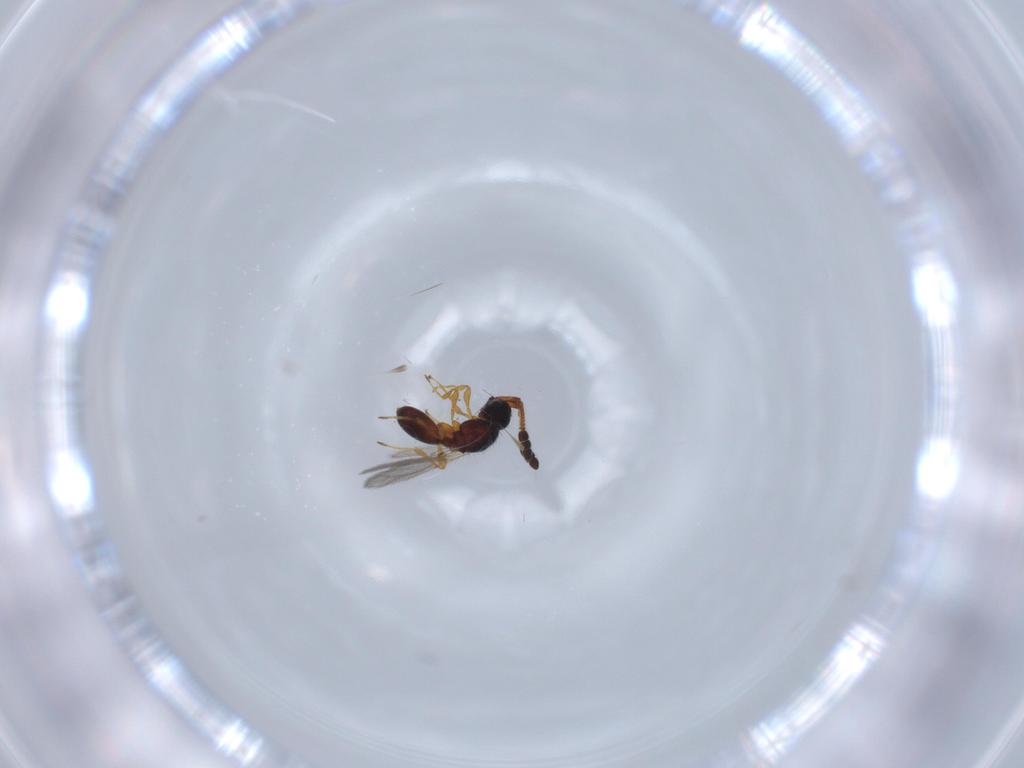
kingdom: Animalia
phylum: Arthropoda
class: Insecta
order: Hymenoptera
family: Diapriidae
